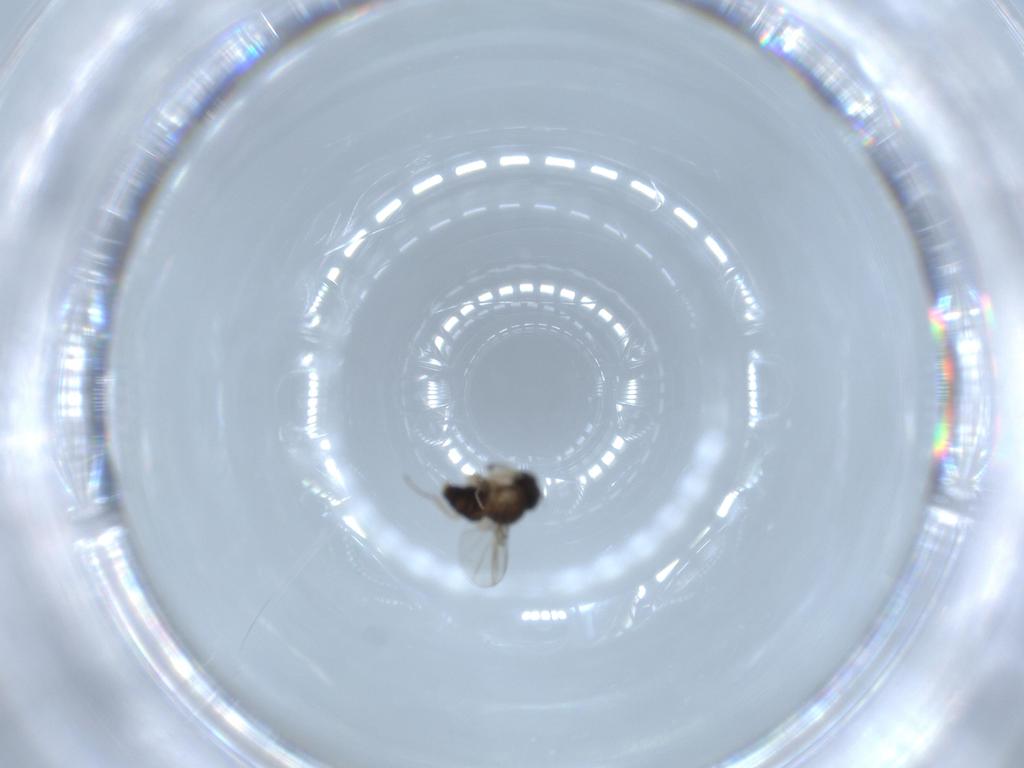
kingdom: Animalia
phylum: Arthropoda
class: Insecta
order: Diptera
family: Phoridae
